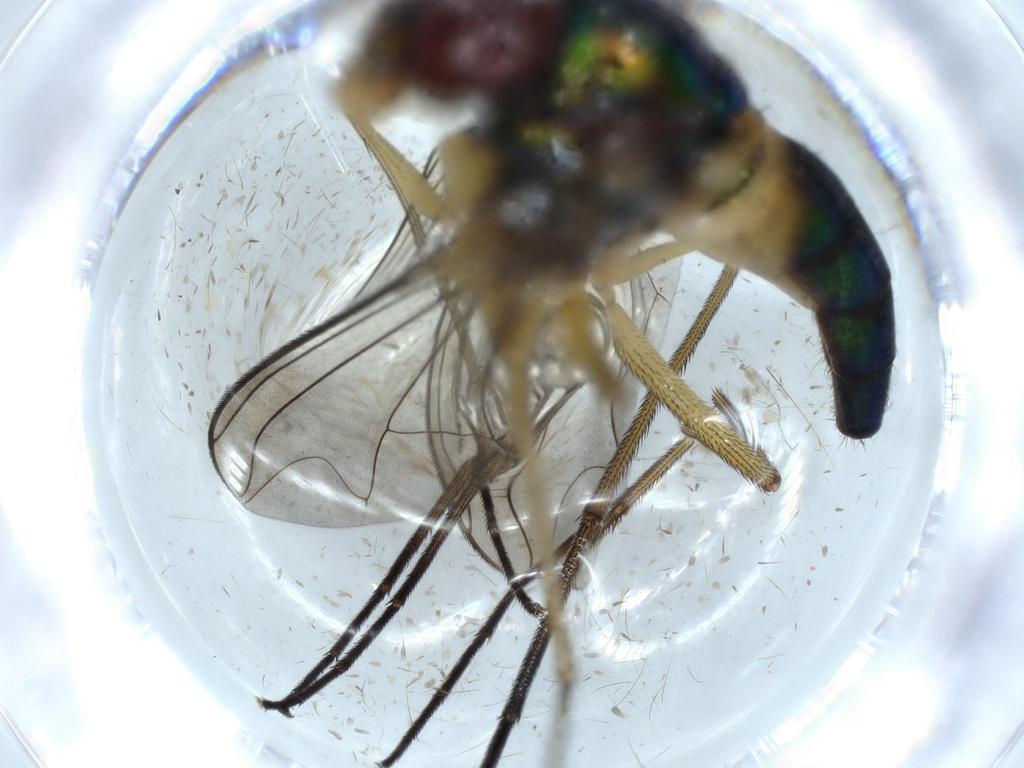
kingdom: Animalia
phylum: Arthropoda
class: Insecta
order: Diptera
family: Dolichopodidae
